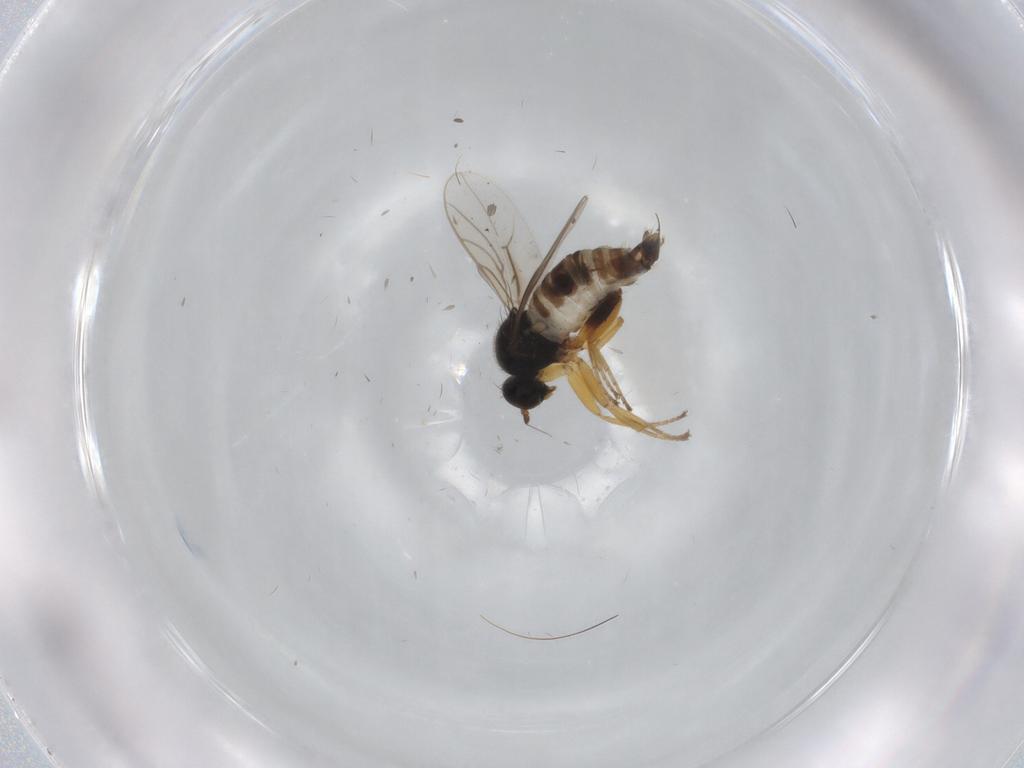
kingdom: Animalia
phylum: Arthropoda
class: Insecta
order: Diptera
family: Hybotidae
